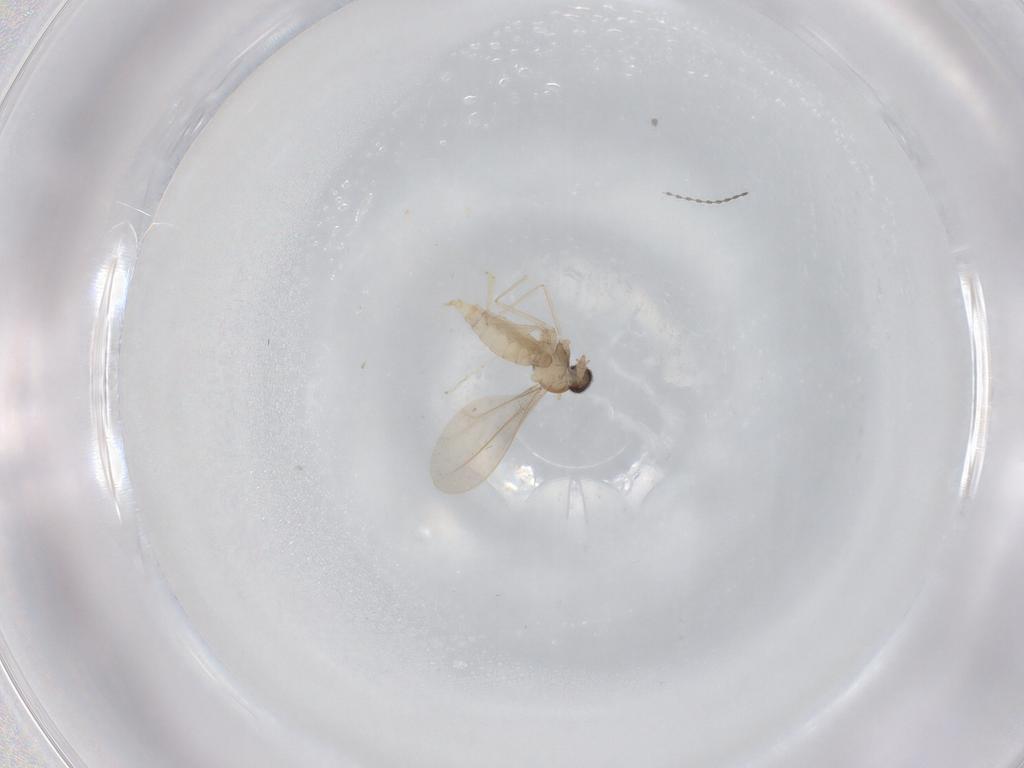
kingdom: Animalia
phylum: Arthropoda
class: Insecta
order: Diptera
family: Cecidomyiidae
